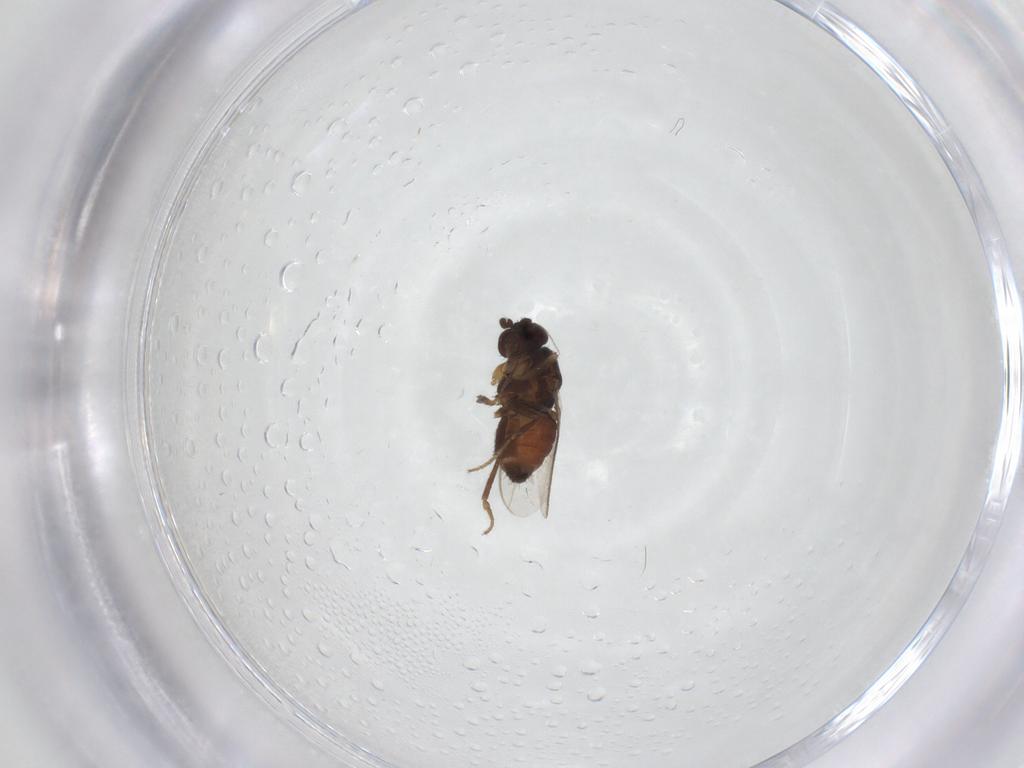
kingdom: Animalia
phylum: Arthropoda
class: Insecta
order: Diptera
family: Sphaeroceridae
